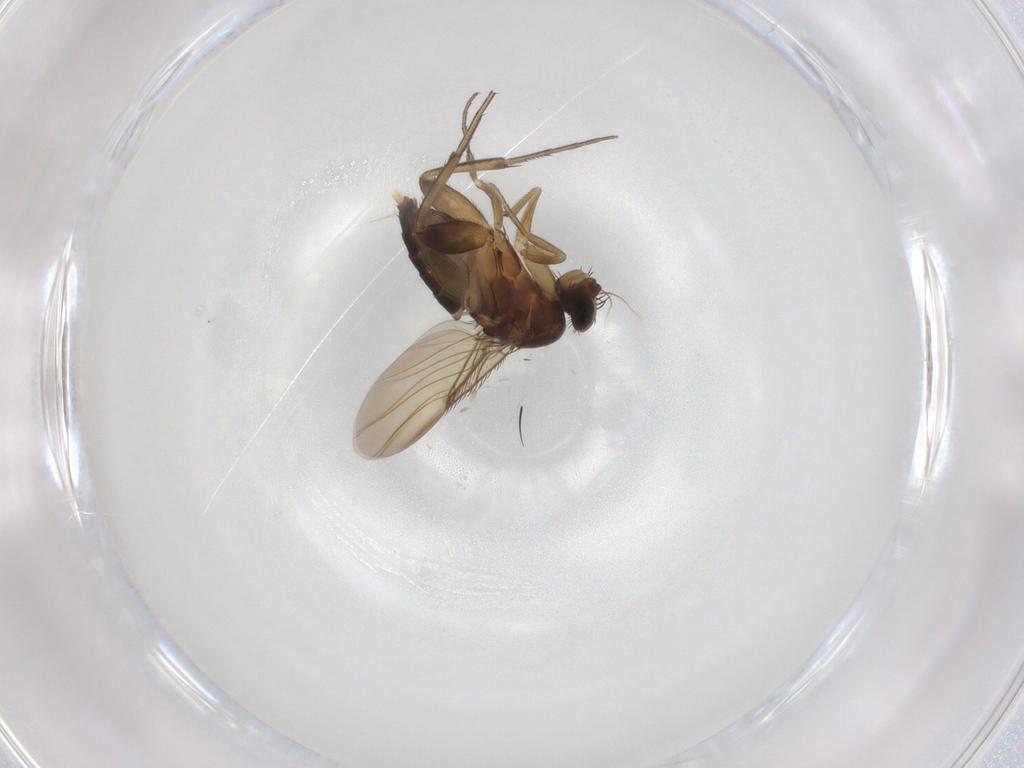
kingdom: Animalia
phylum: Arthropoda
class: Insecta
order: Diptera
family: Phoridae
